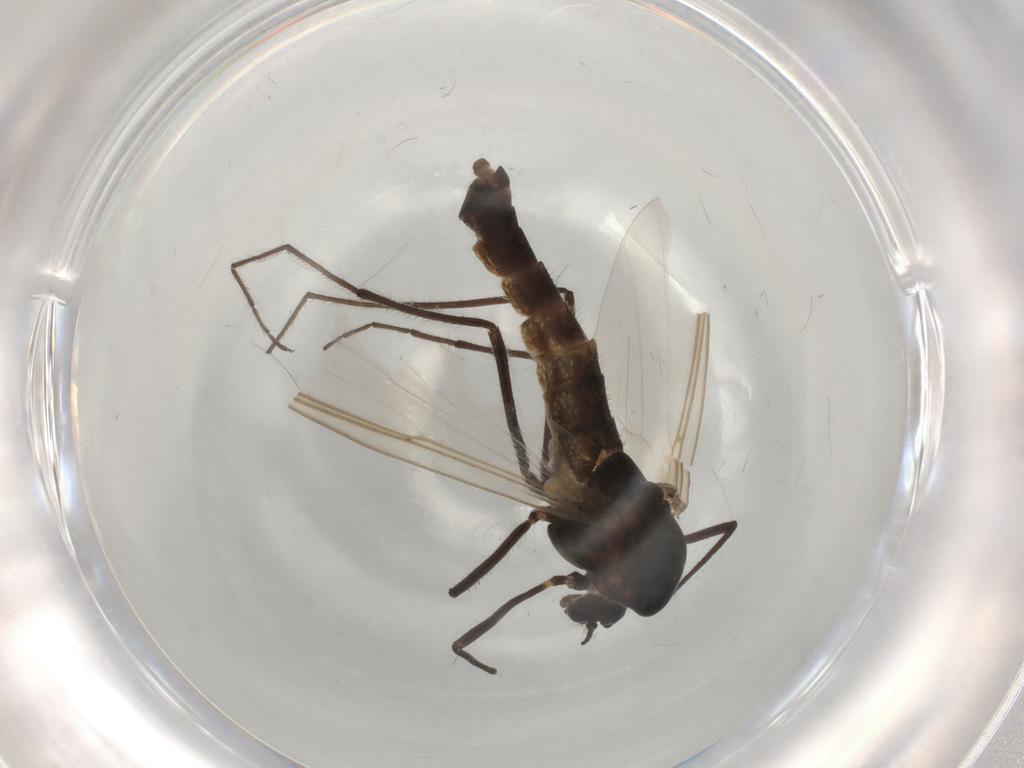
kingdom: Animalia
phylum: Arthropoda
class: Insecta
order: Diptera
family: Chironomidae
